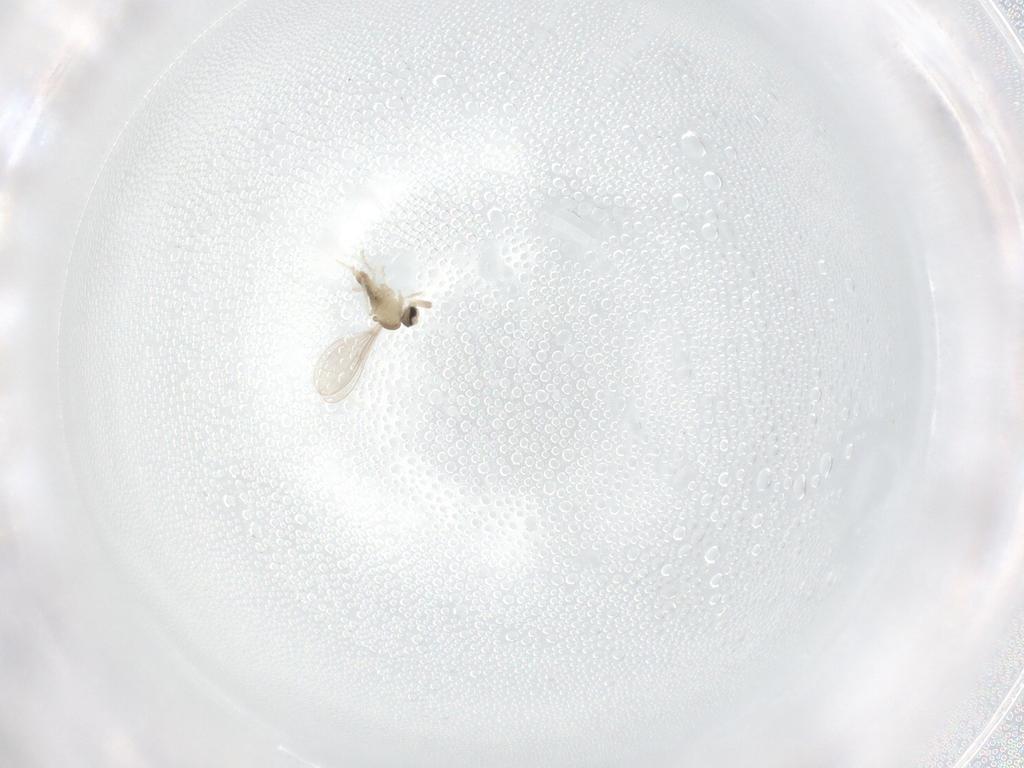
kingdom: Animalia
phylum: Arthropoda
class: Insecta
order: Diptera
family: Cecidomyiidae
